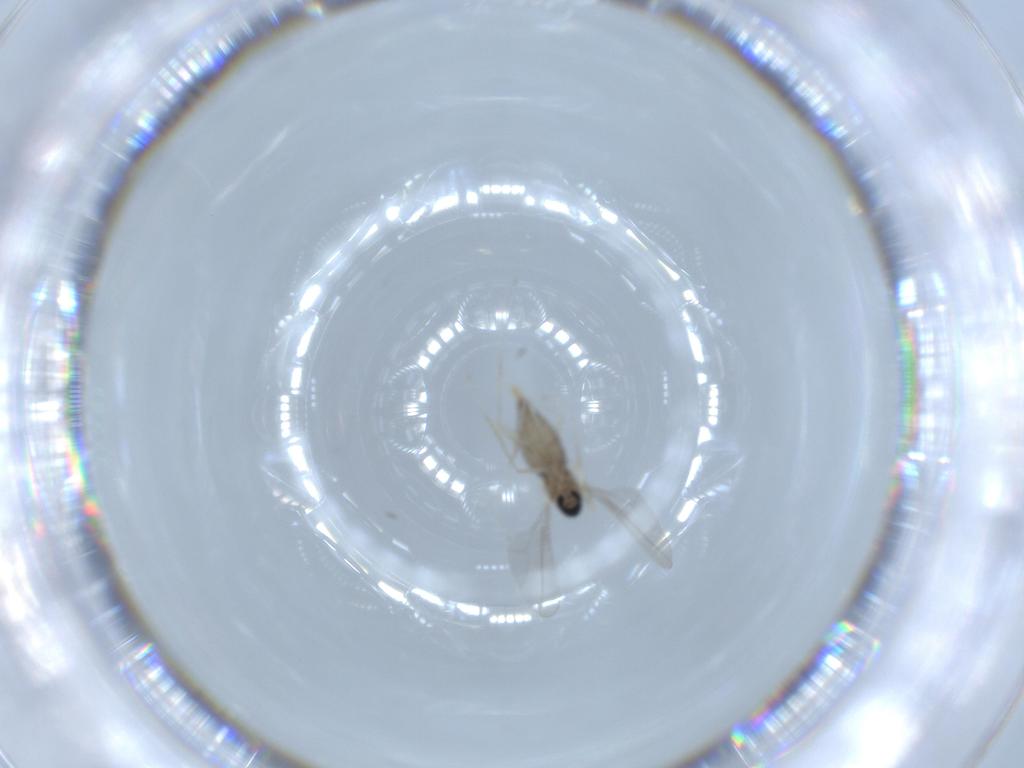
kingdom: Animalia
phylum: Arthropoda
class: Insecta
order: Diptera
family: Cecidomyiidae
